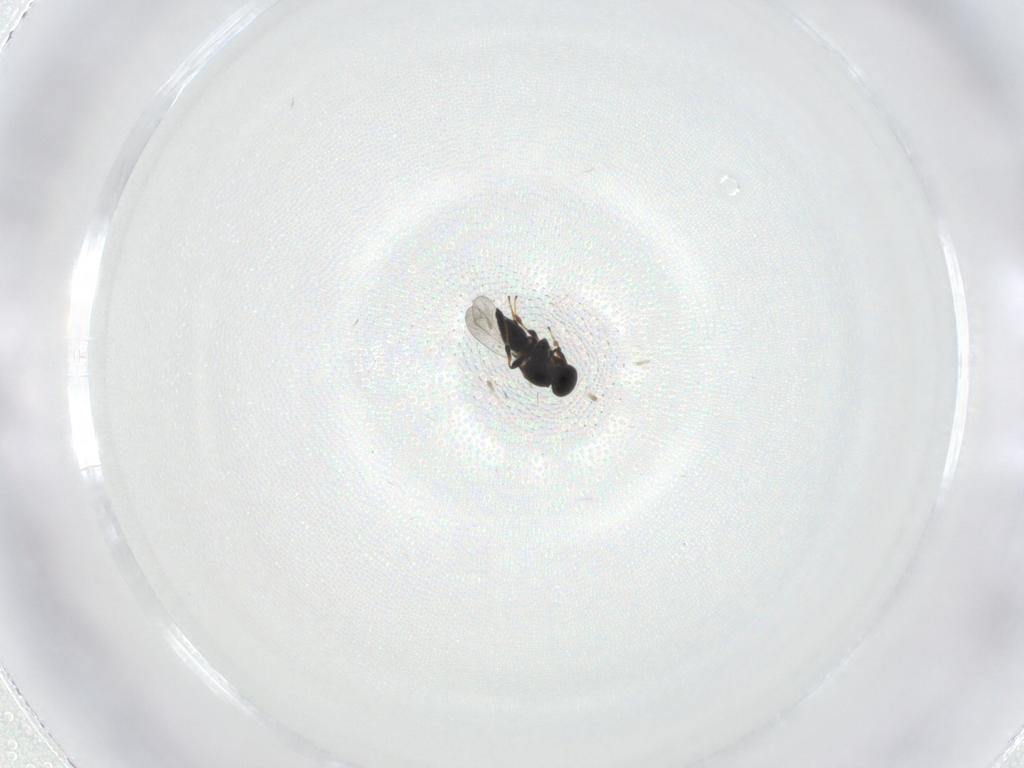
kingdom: Animalia
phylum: Arthropoda
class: Insecta
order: Hymenoptera
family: Platygastridae
